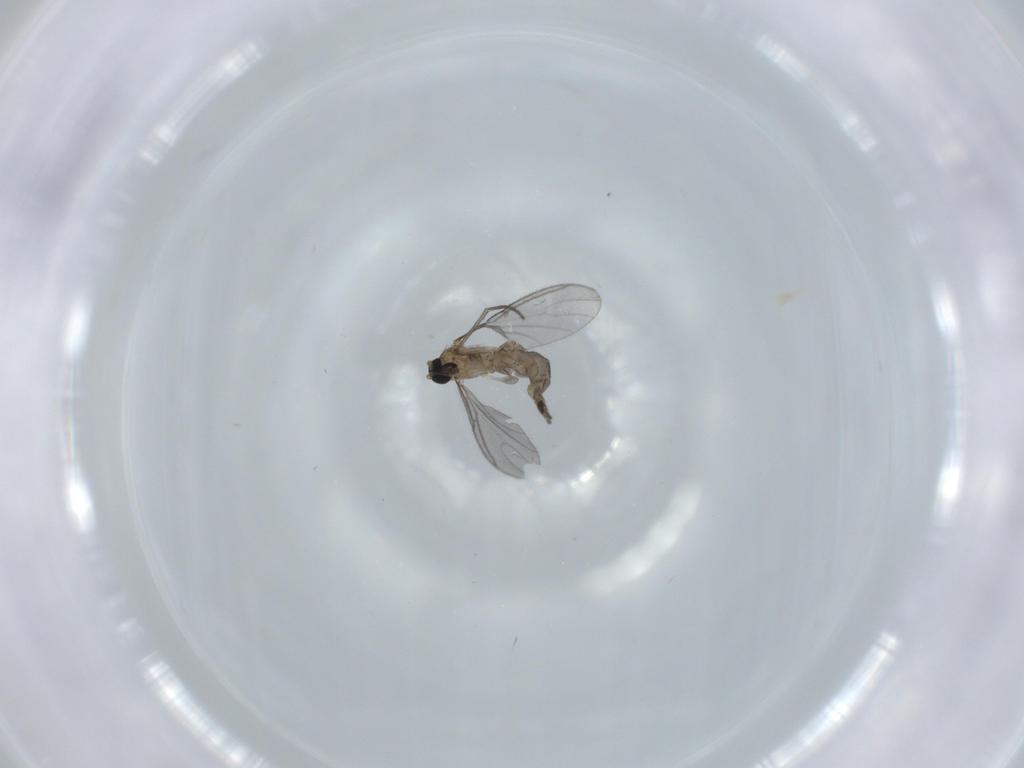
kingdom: Animalia
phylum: Arthropoda
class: Insecta
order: Diptera
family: Sciaridae
